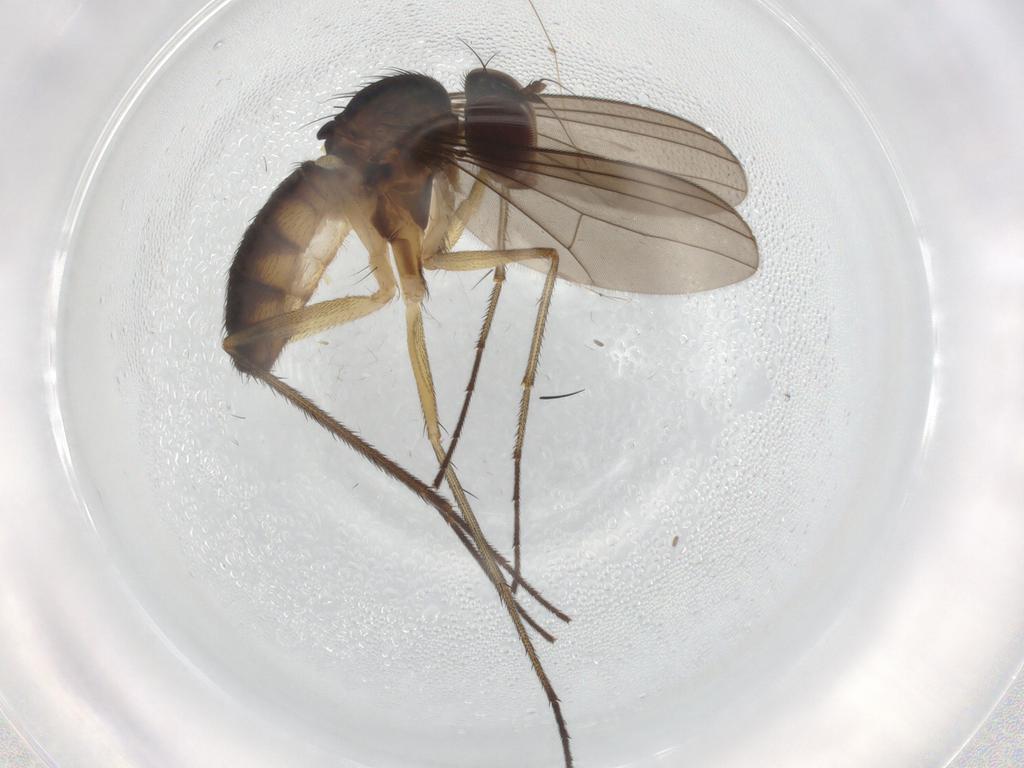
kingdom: Animalia
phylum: Arthropoda
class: Insecta
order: Diptera
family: Dolichopodidae
